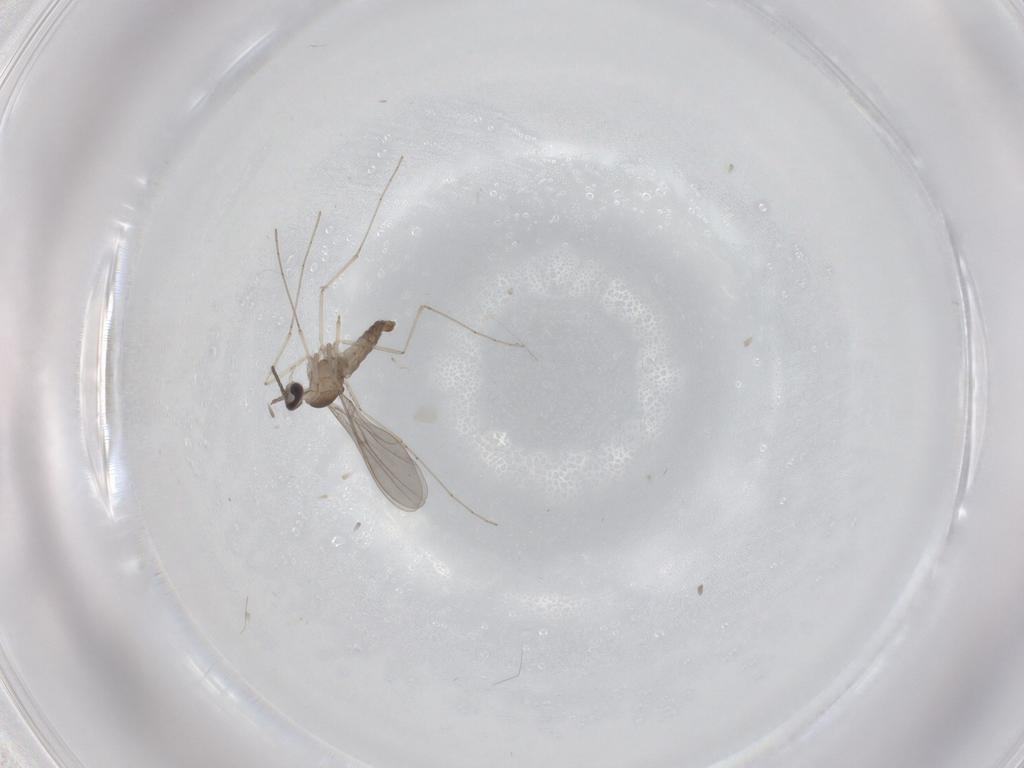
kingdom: Animalia
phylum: Arthropoda
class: Insecta
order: Diptera
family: Cecidomyiidae
